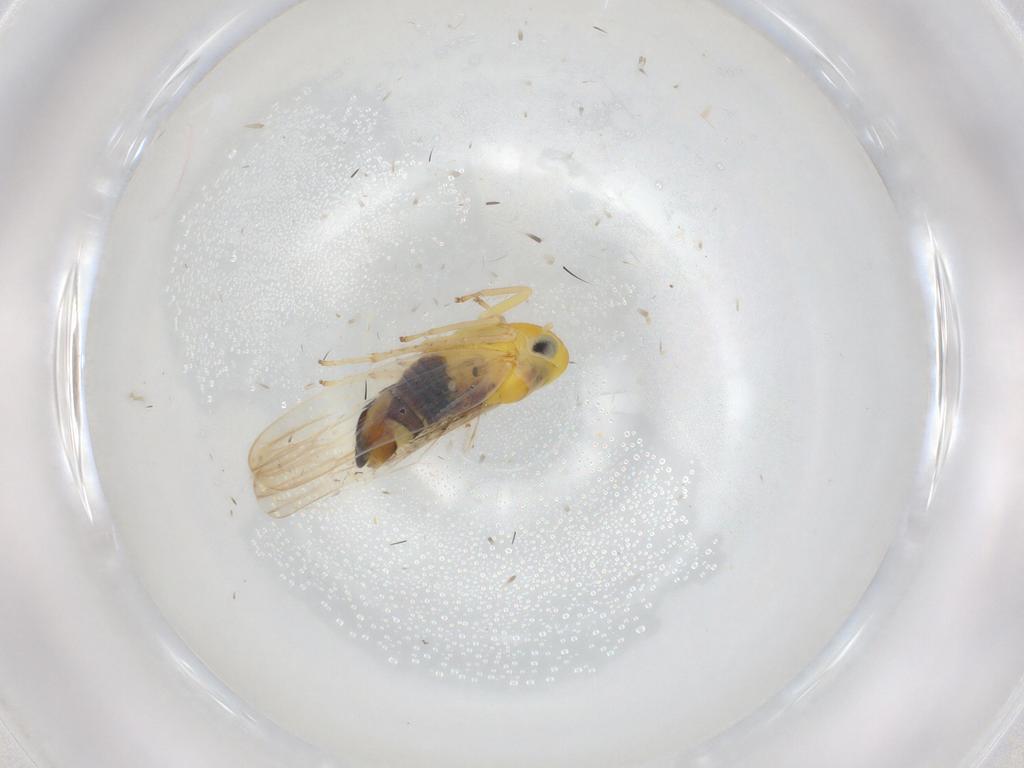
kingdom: Animalia
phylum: Arthropoda
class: Insecta
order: Hemiptera
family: Cicadellidae
